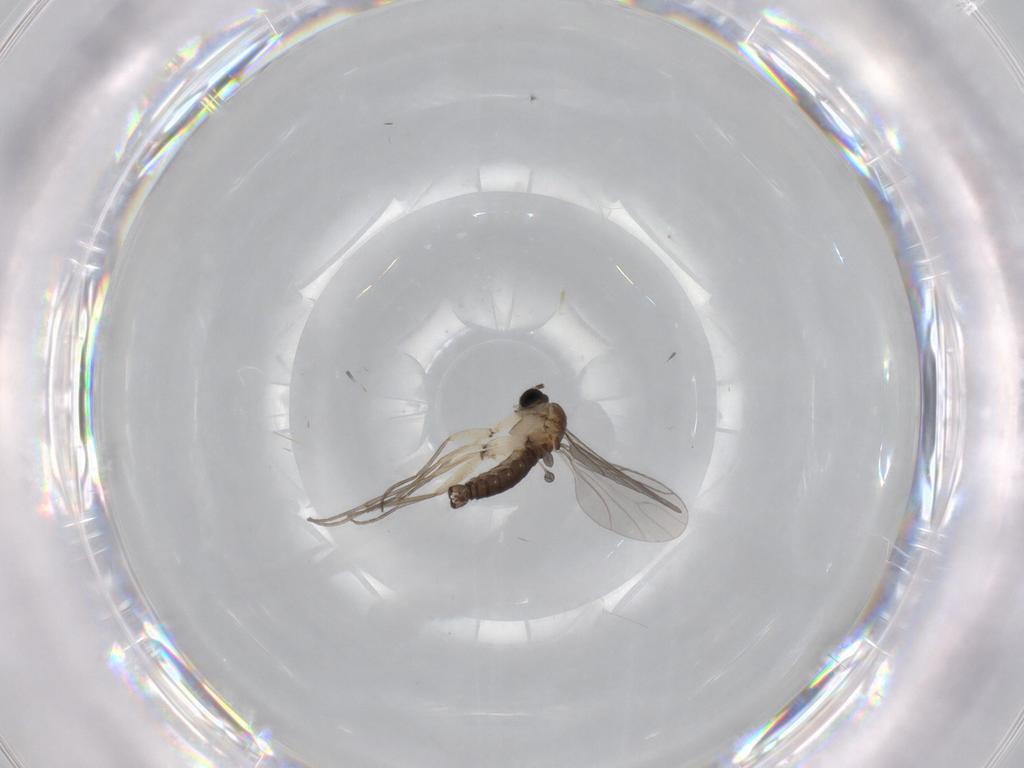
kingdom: Animalia
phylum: Arthropoda
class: Insecta
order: Diptera
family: Sciaridae
